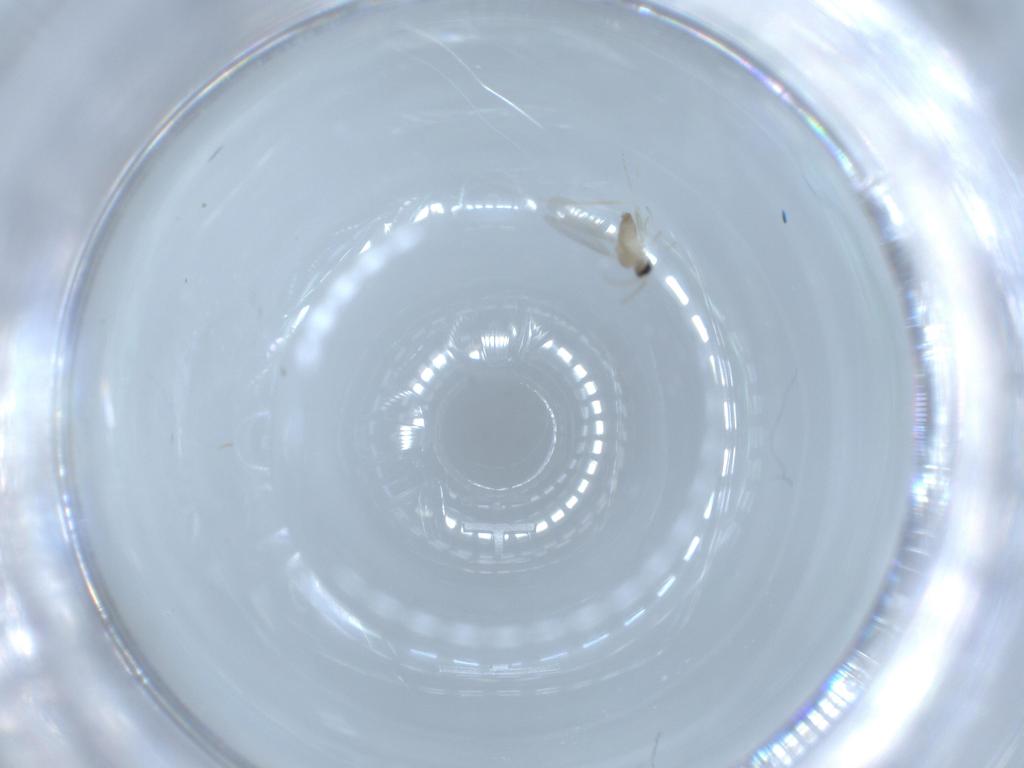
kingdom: Animalia
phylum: Arthropoda
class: Insecta
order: Diptera
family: Cecidomyiidae
